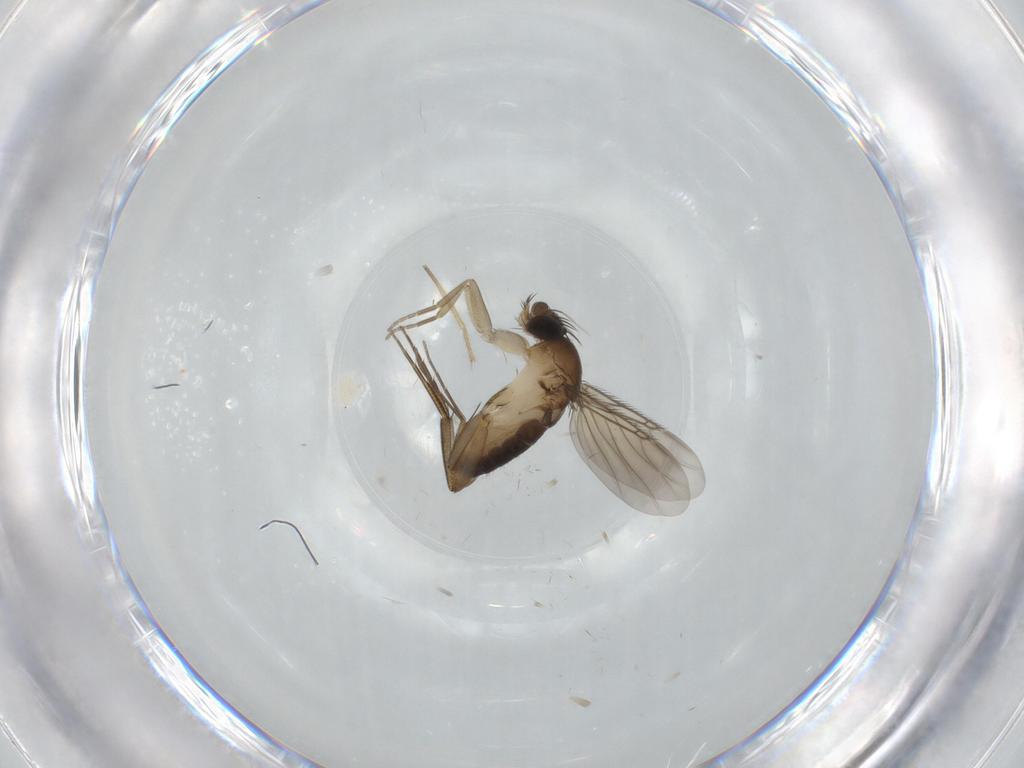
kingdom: Animalia
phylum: Arthropoda
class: Insecta
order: Diptera
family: Phoridae
